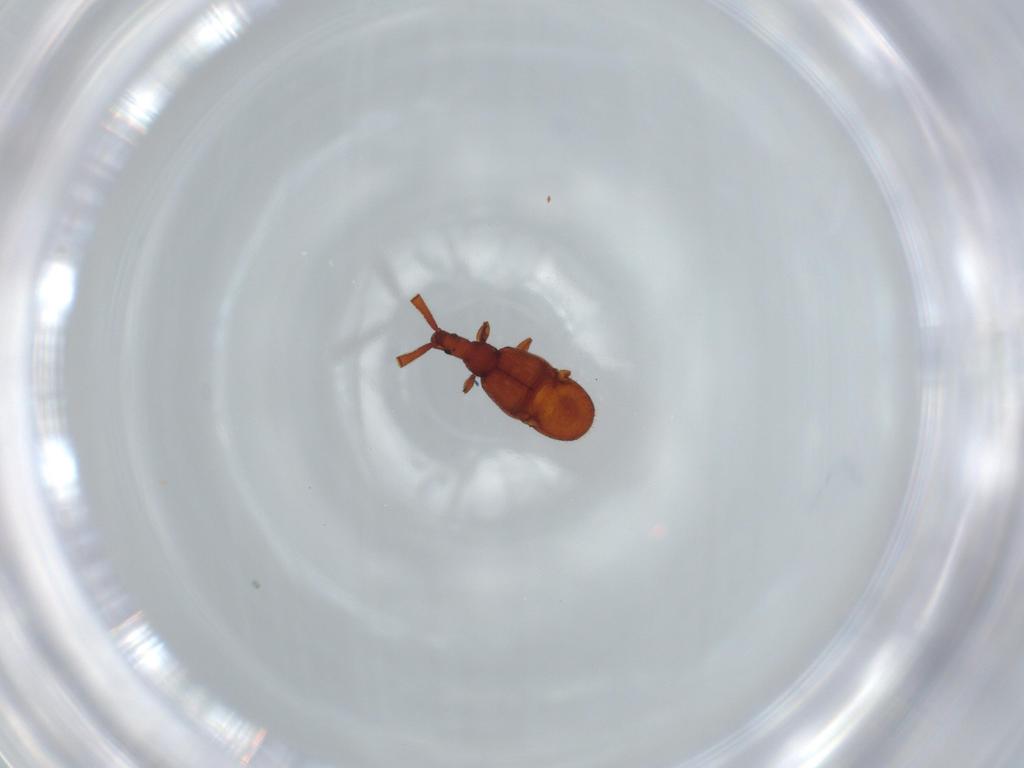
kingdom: Animalia
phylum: Arthropoda
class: Insecta
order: Coleoptera
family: Staphylinidae
